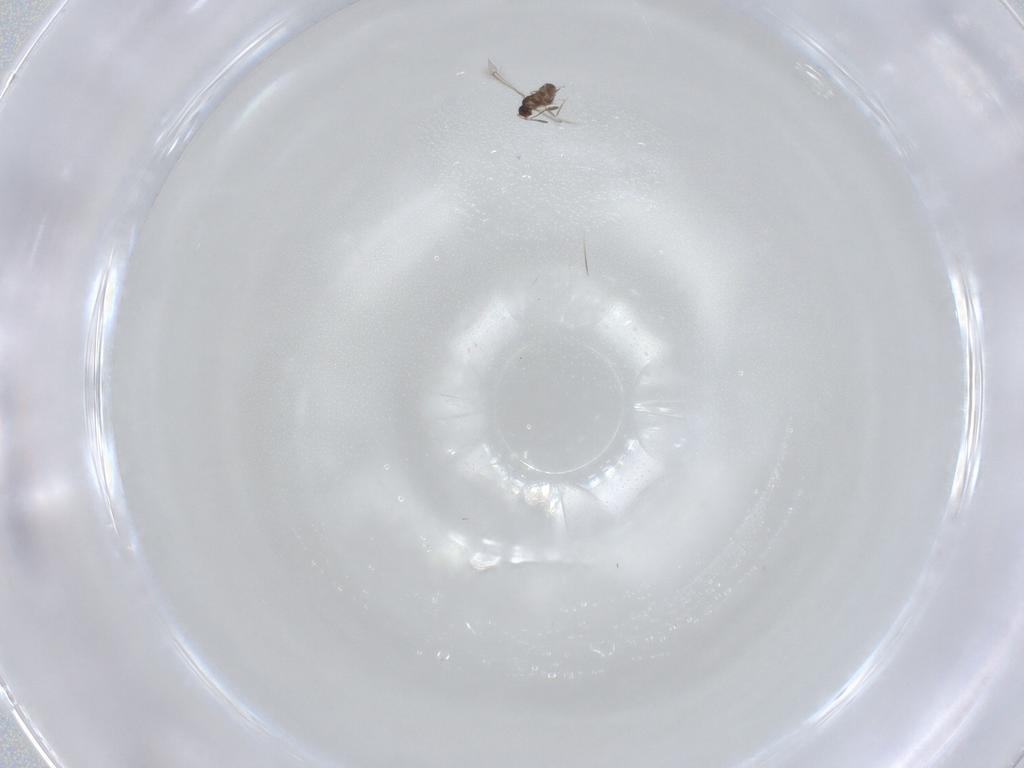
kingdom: Animalia
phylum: Arthropoda
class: Insecta
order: Hymenoptera
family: Mymaridae
